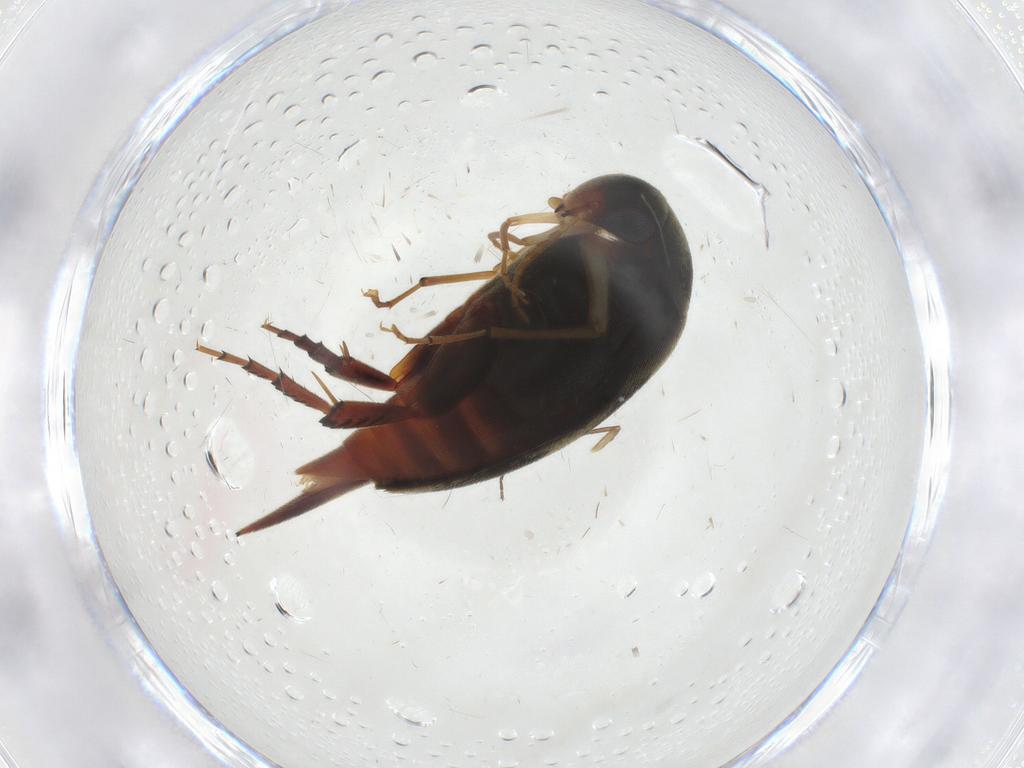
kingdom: Animalia
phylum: Arthropoda
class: Insecta
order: Coleoptera
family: Mordellidae
